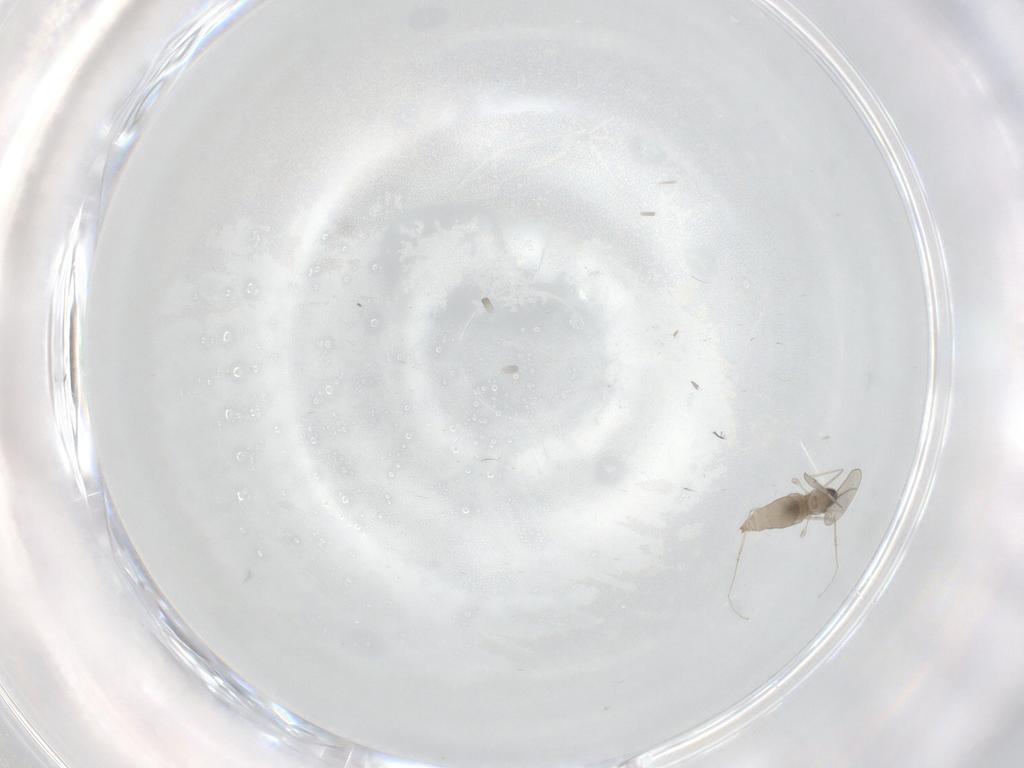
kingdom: Animalia
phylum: Arthropoda
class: Insecta
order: Diptera
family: Cecidomyiidae
